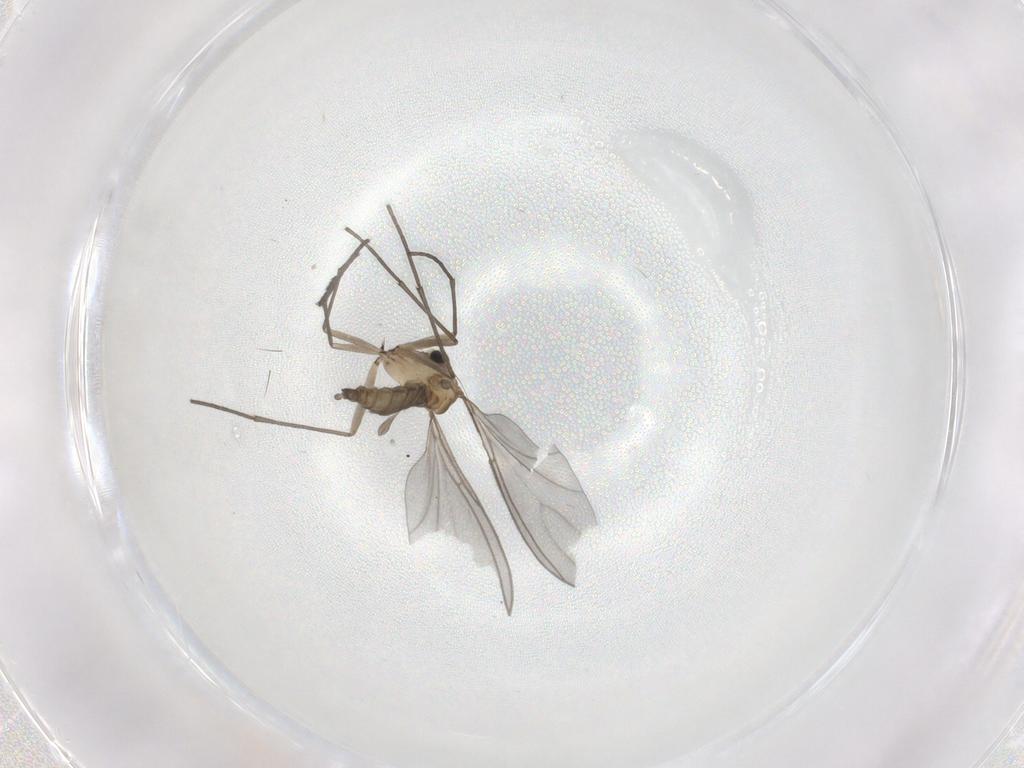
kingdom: Animalia
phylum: Arthropoda
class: Insecta
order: Diptera
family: Sciaridae
